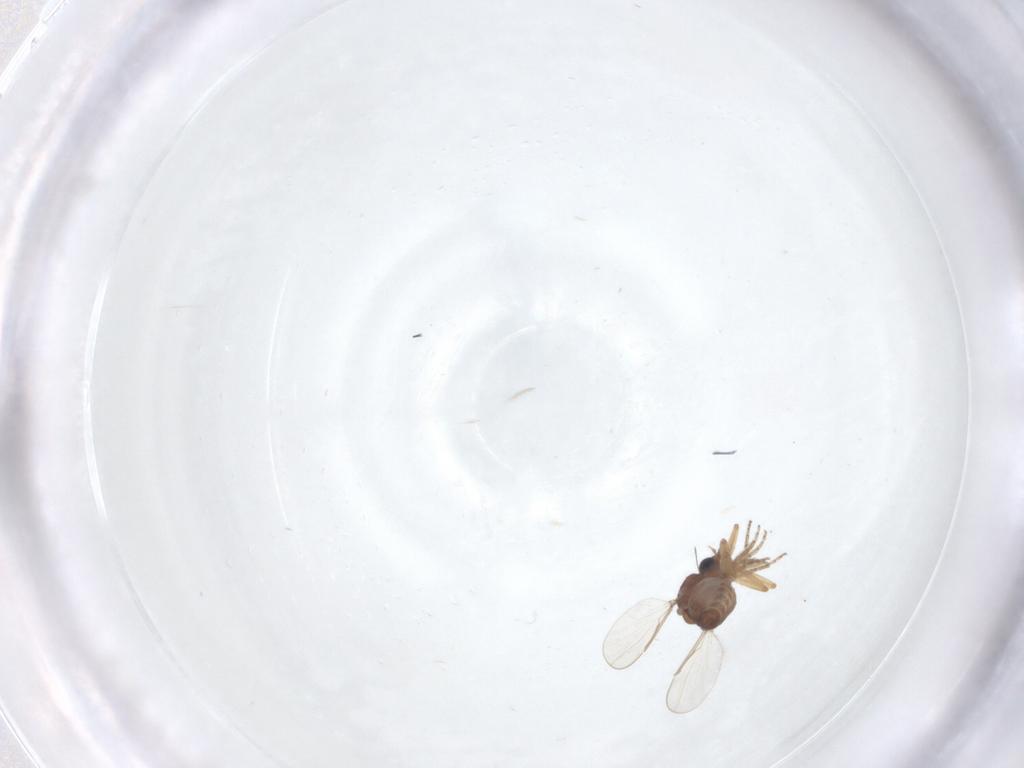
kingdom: Animalia
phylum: Arthropoda
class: Insecta
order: Diptera
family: Ceratopogonidae
